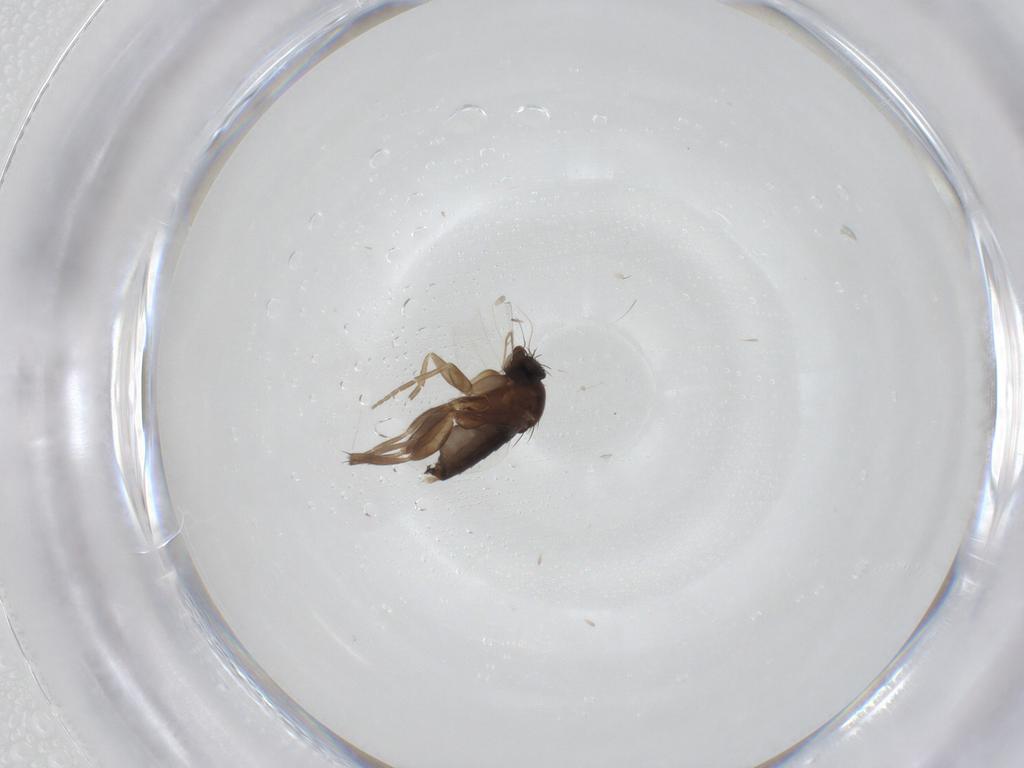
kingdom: Animalia
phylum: Arthropoda
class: Insecta
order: Diptera
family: Phoridae
